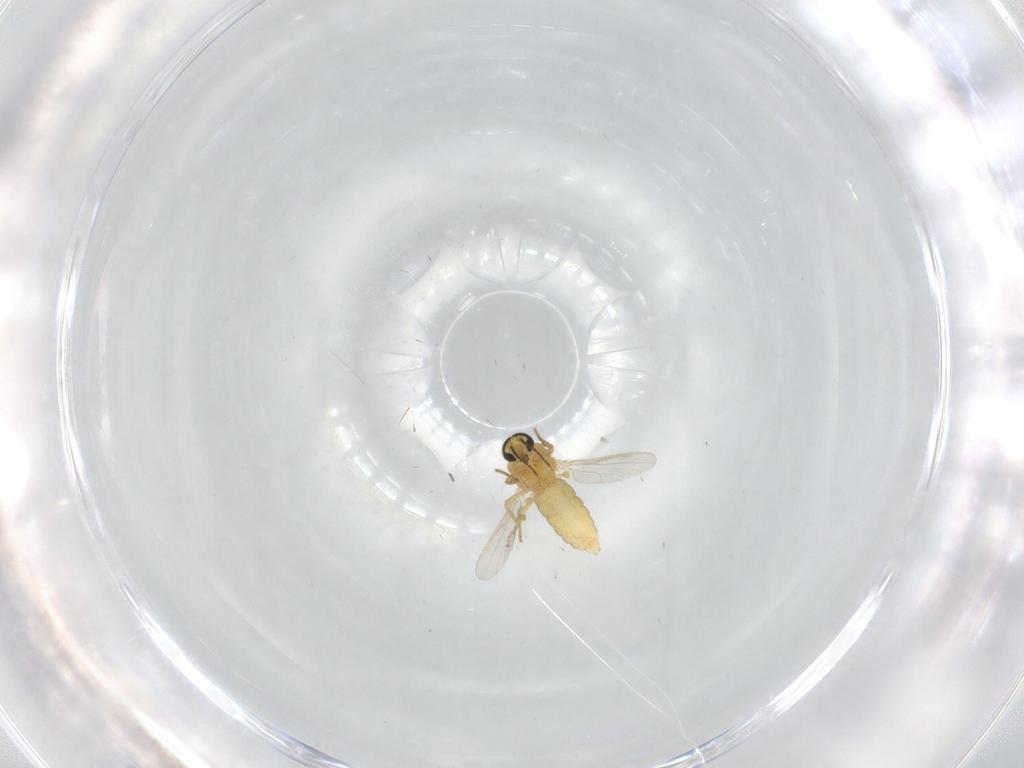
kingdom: Animalia
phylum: Arthropoda
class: Insecta
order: Diptera
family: Ceratopogonidae
